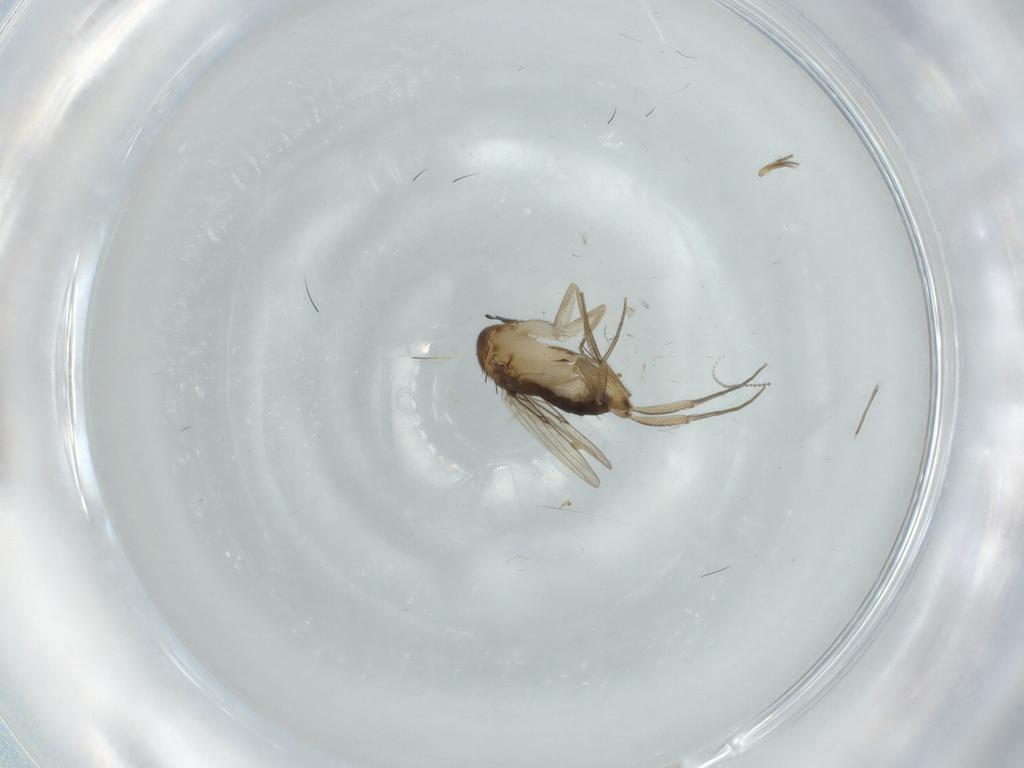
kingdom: Animalia
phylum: Arthropoda
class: Insecta
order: Diptera
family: Phoridae
